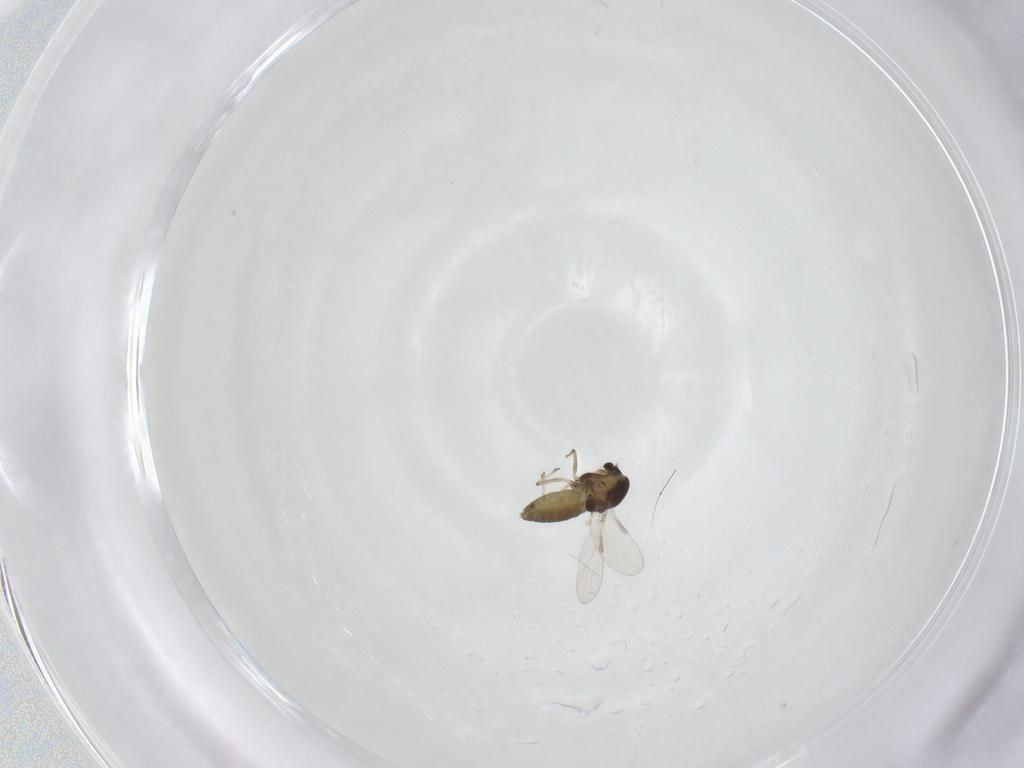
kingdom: Animalia
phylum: Arthropoda
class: Insecta
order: Diptera
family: Chironomidae
